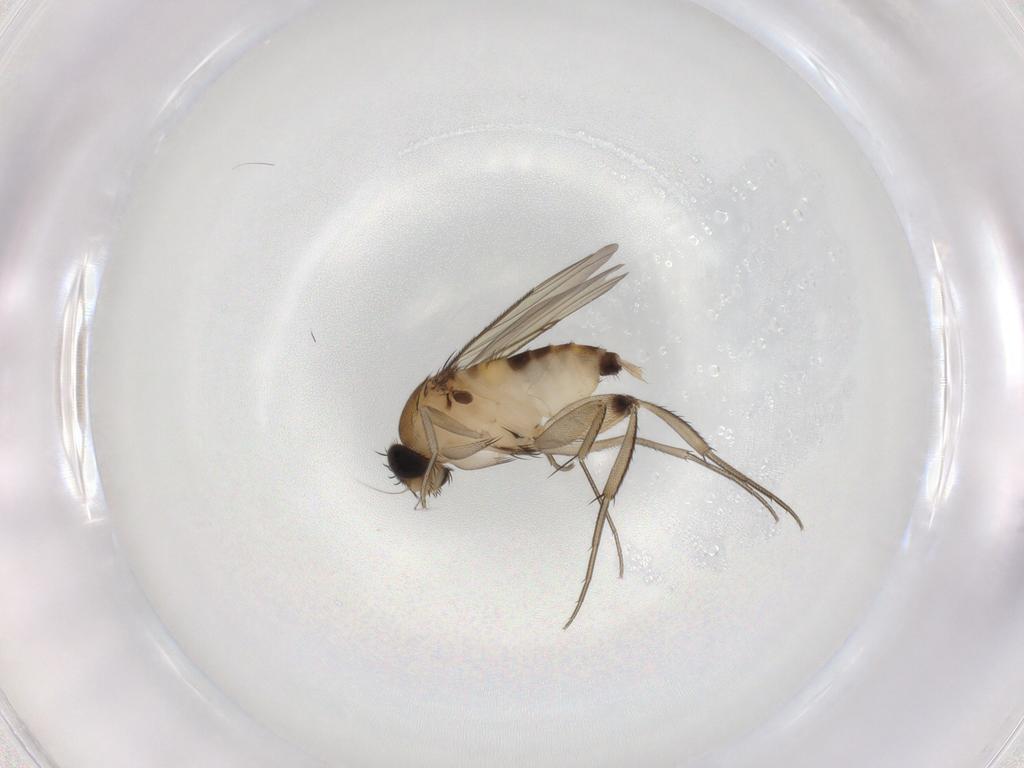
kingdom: Animalia
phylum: Arthropoda
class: Insecta
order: Diptera
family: Phoridae
